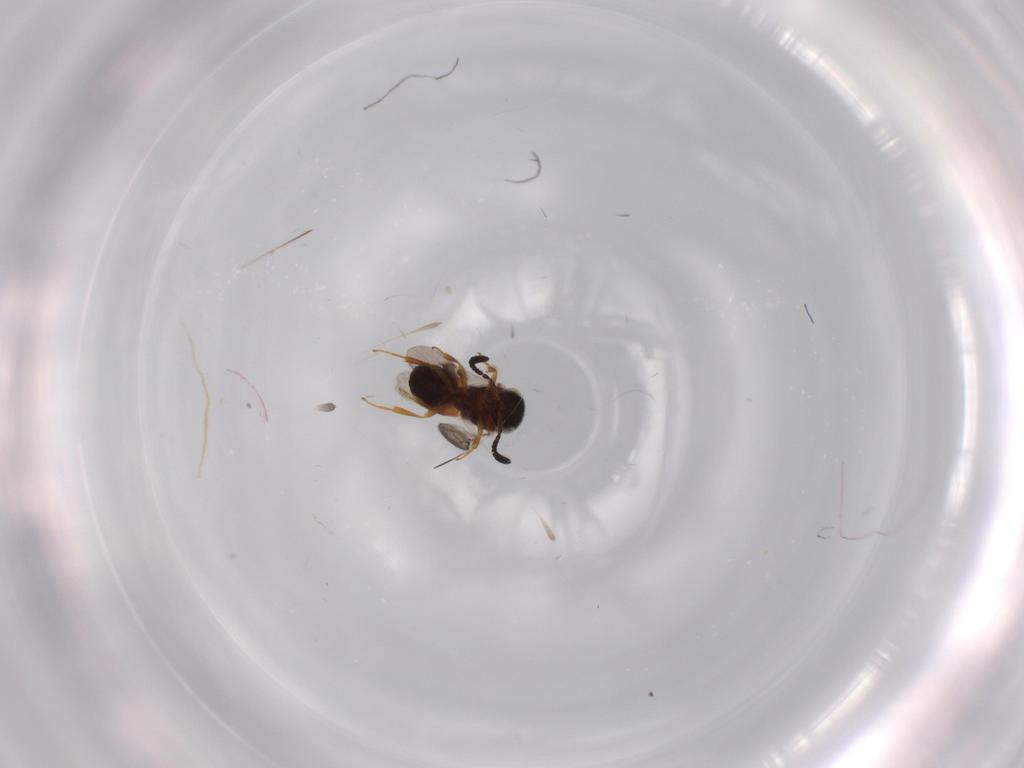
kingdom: Animalia
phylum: Arthropoda
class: Insecta
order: Hymenoptera
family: Scelionidae
